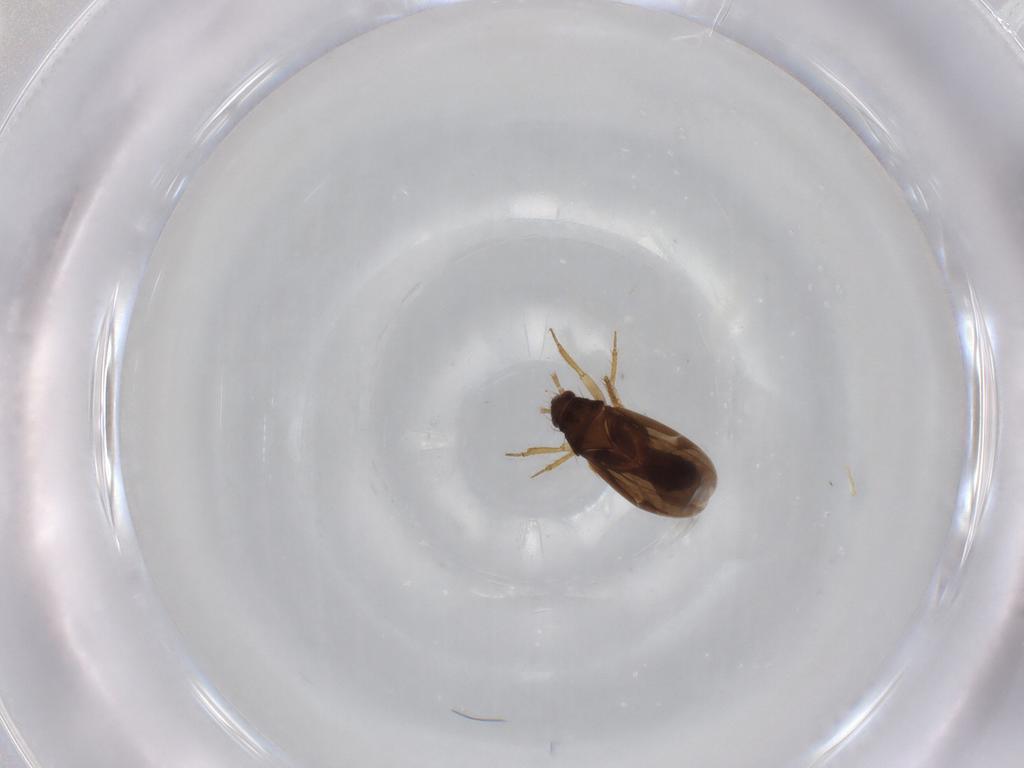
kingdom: Animalia
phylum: Arthropoda
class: Insecta
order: Hemiptera
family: Ceratocombidae
